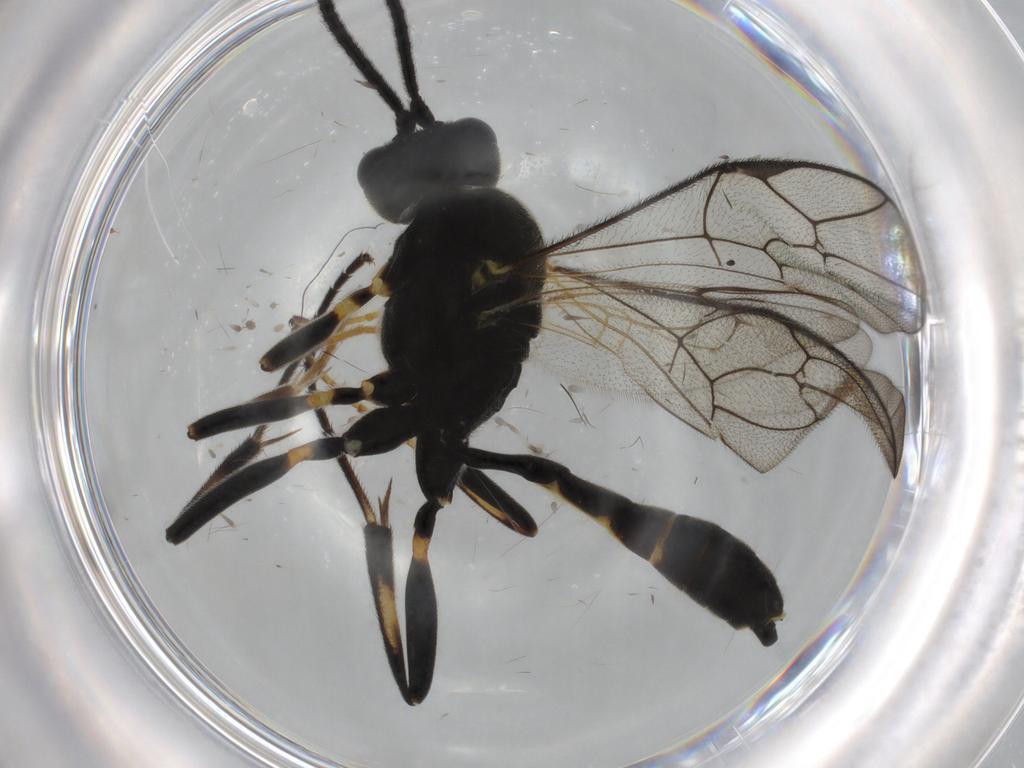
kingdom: Animalia
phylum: Arthropoda
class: Insecta
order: Hymenoptera
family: Ichneumonidae
